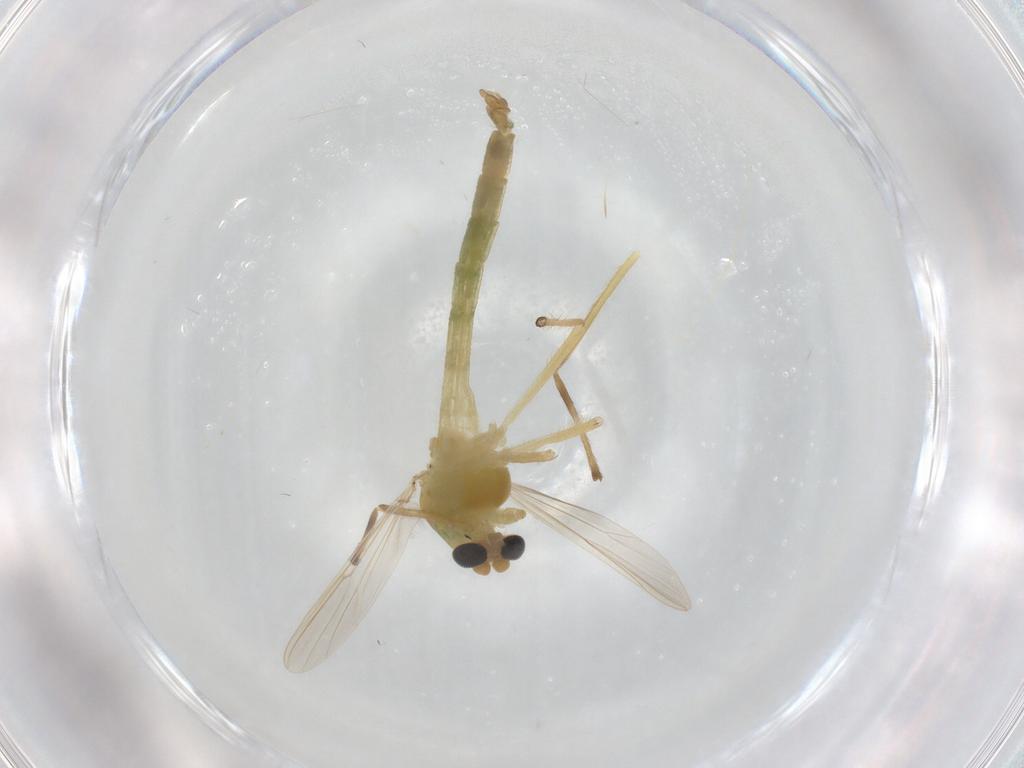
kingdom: Animalia
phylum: Arthropoda
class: Insecta
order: Diptera
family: Chironomidae
